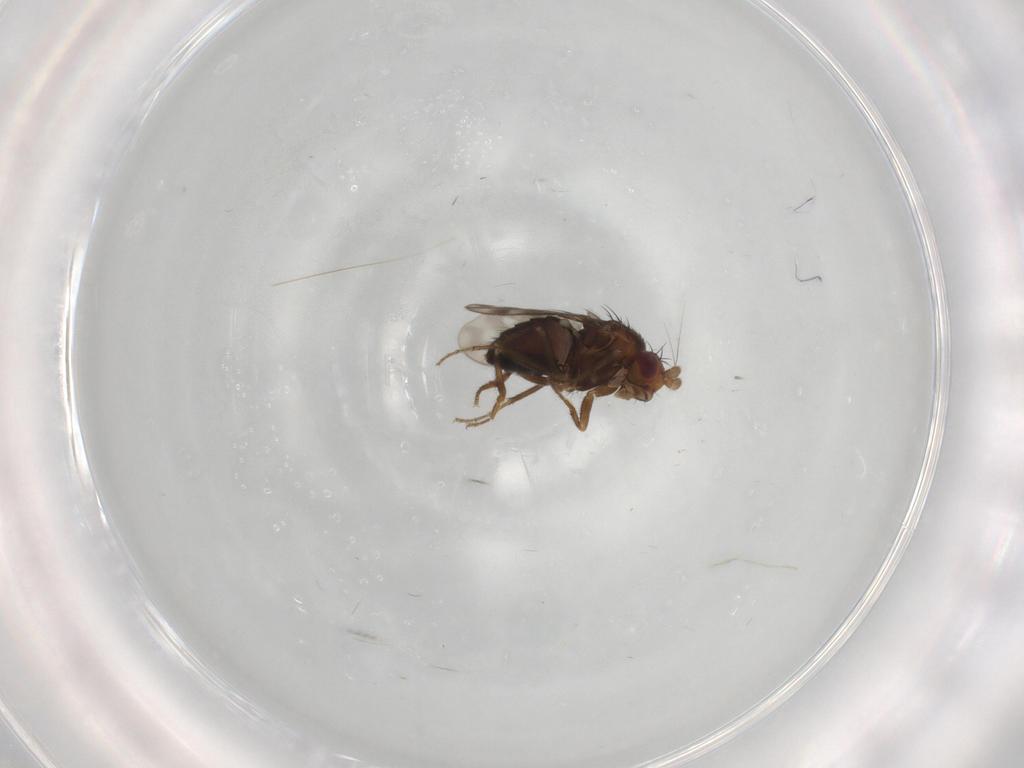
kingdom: Animalia
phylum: Arthropoda
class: Insecta
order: Diptera
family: Sphaeroceridae
